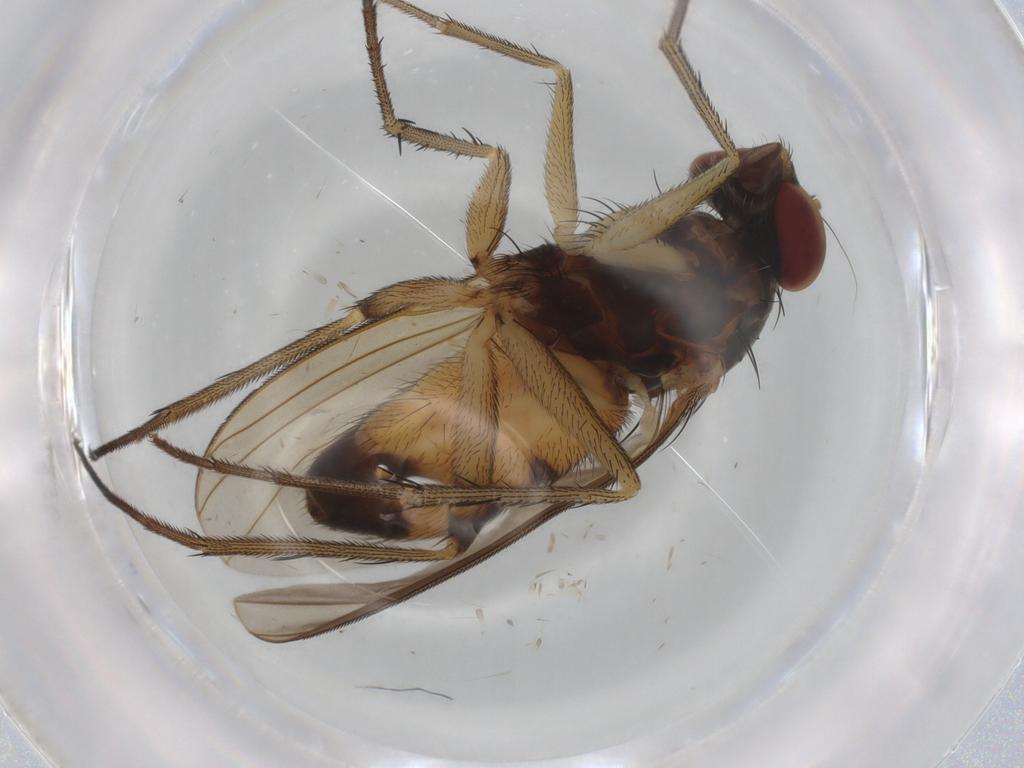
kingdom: Animalia
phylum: Arthropoda
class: Insecta
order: Diptera
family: Dolichopodidae
